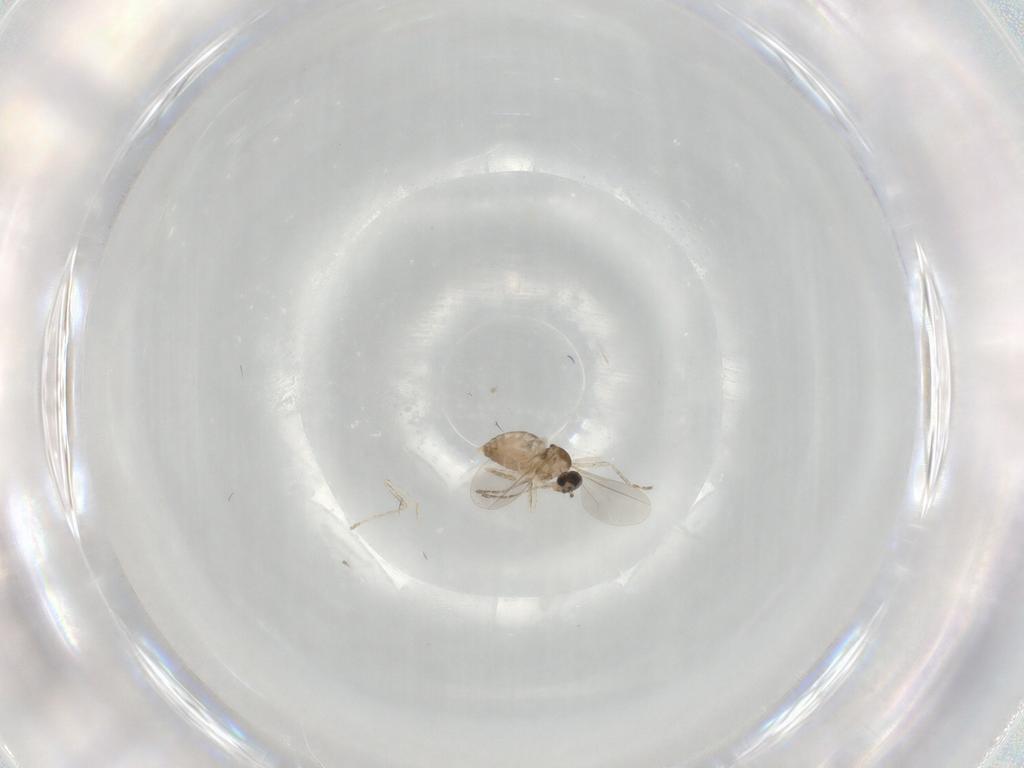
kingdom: Animalia
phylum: Arthropoda
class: Insecta
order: Diptera
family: Cecidomyiidae
